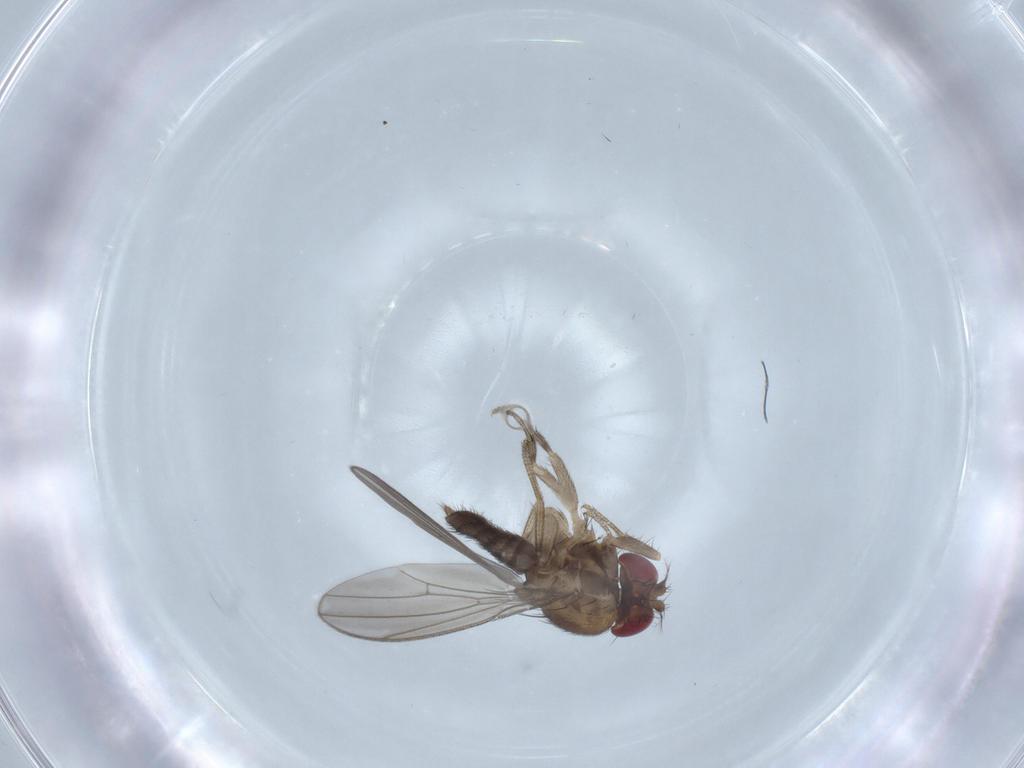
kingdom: Animalia
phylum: Arthropoda
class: Insecta
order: Diptera
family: Drosophilidae
